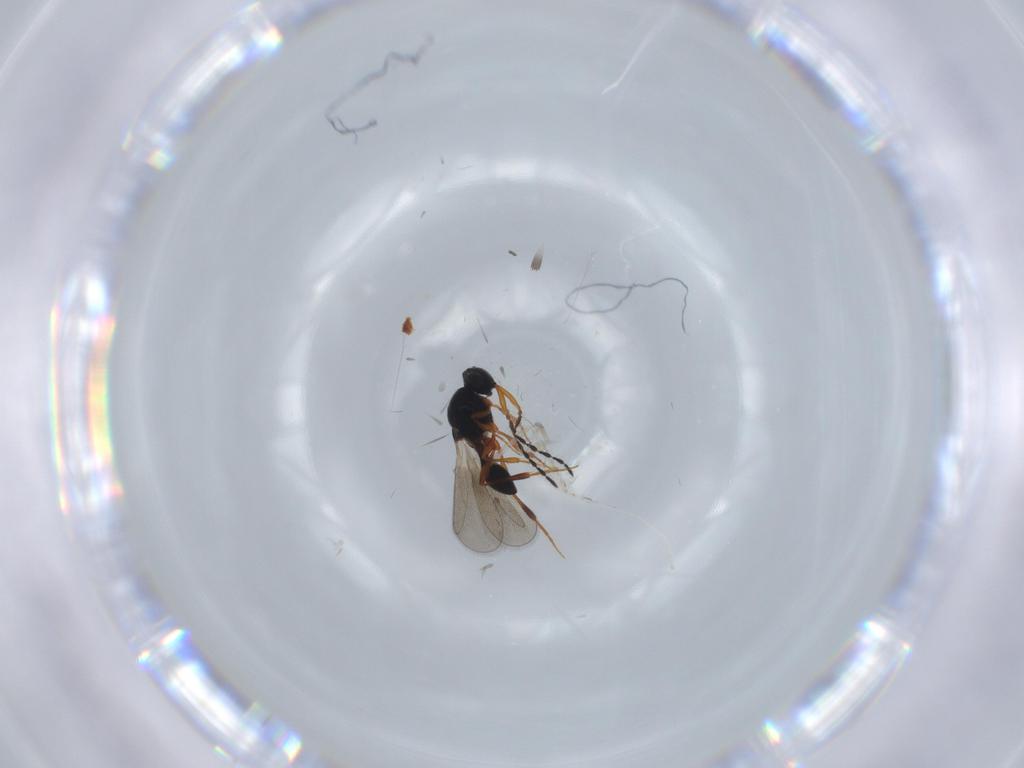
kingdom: Animalia
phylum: Arthropoda
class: Insecta
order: Hymenoptera
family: Platygastridae
